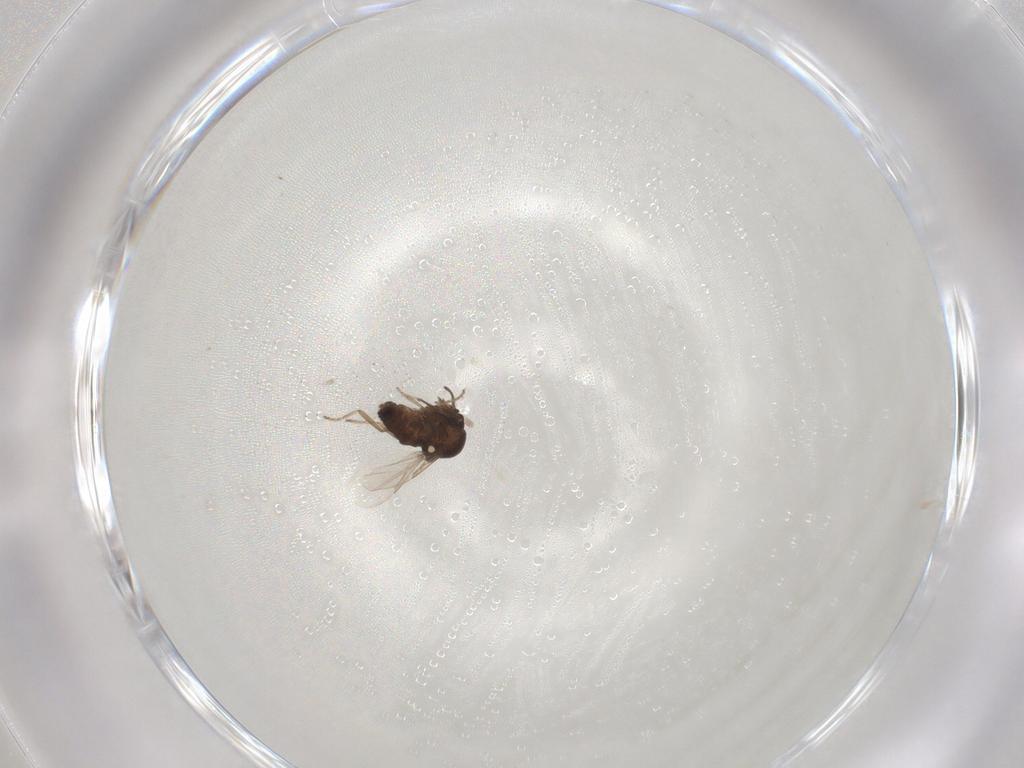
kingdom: Animalia
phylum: Arthropoda
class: Insecta
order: Diptera
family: Ceratopogonidae
